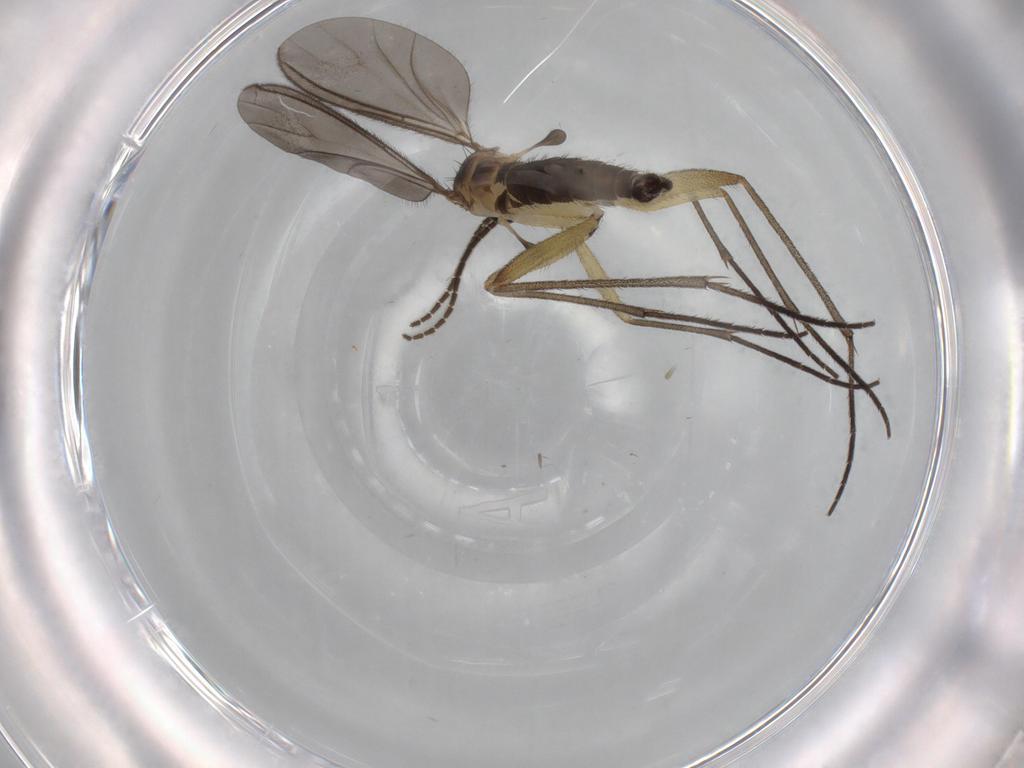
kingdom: Animalia
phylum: Arthropoda
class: Insecta
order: Diptera
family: Sciaridae
